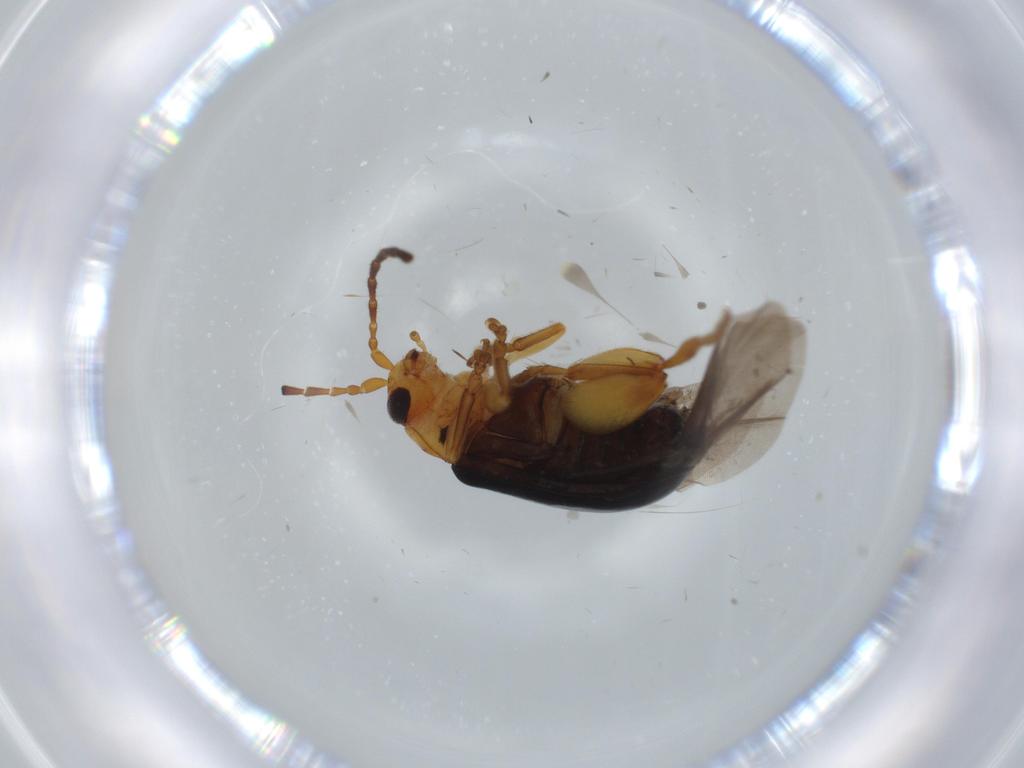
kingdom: Animalia
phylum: Arthropoda
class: Insecta
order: Coleoptera
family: Chrysomelidae
